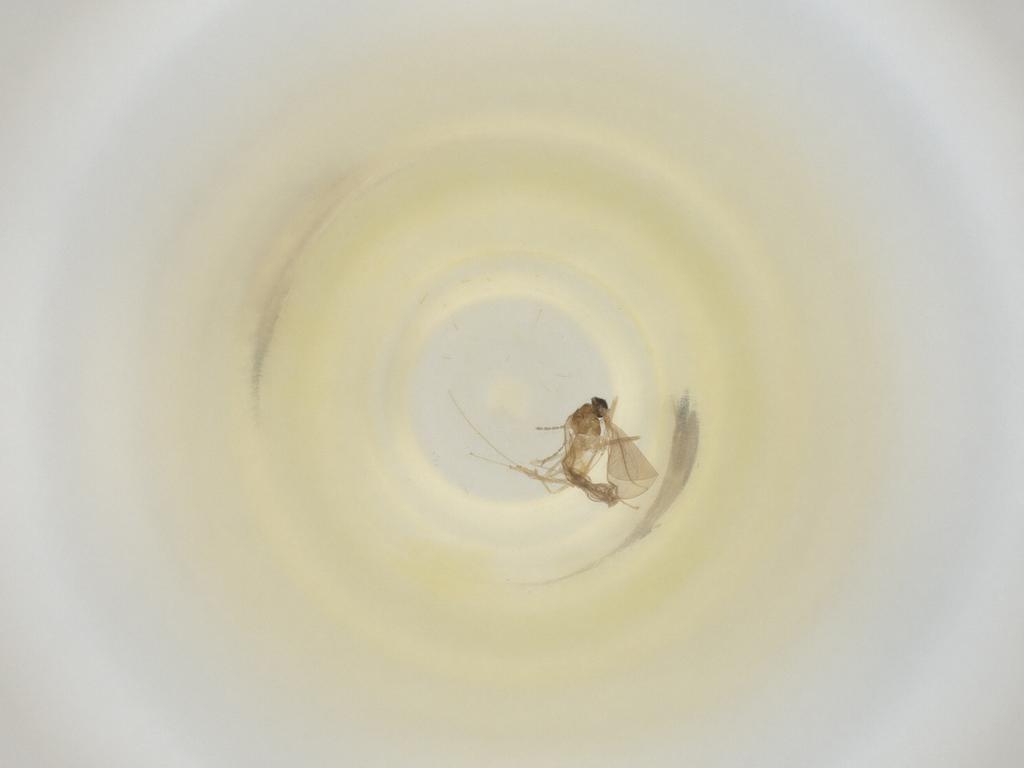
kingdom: Animalia
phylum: Arthropoda
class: Insecta
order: Diptera
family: Cecidomyiidae
